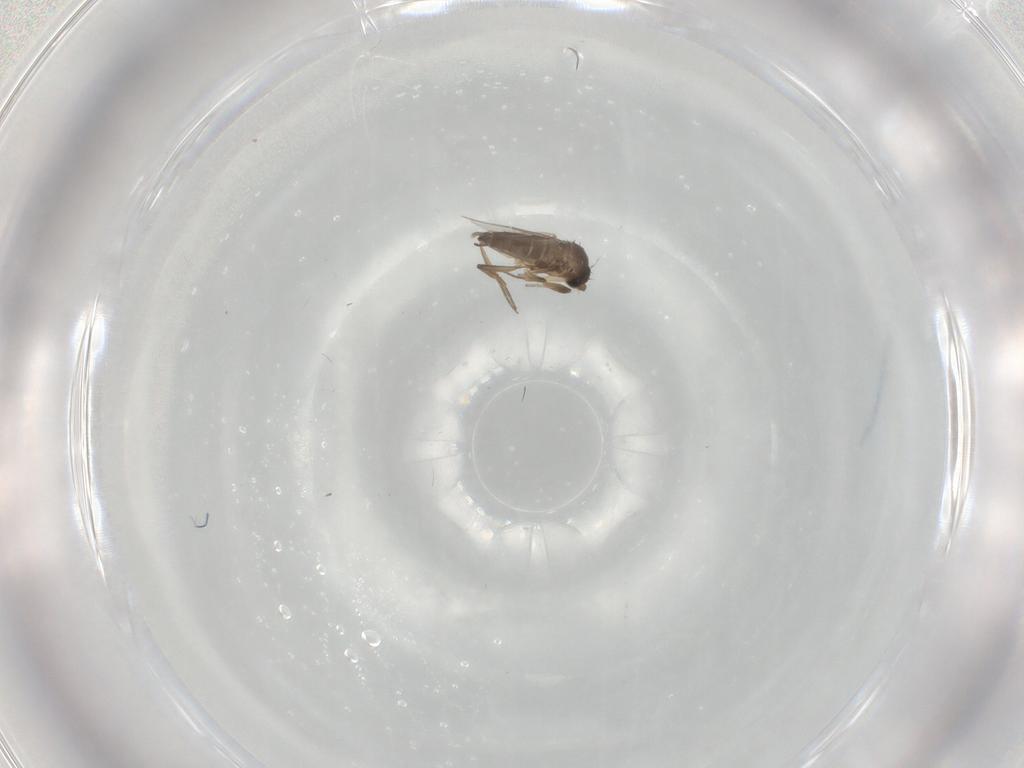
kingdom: Animalia
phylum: Arthropoda
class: Insecta
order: Diptera
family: Phoridae
